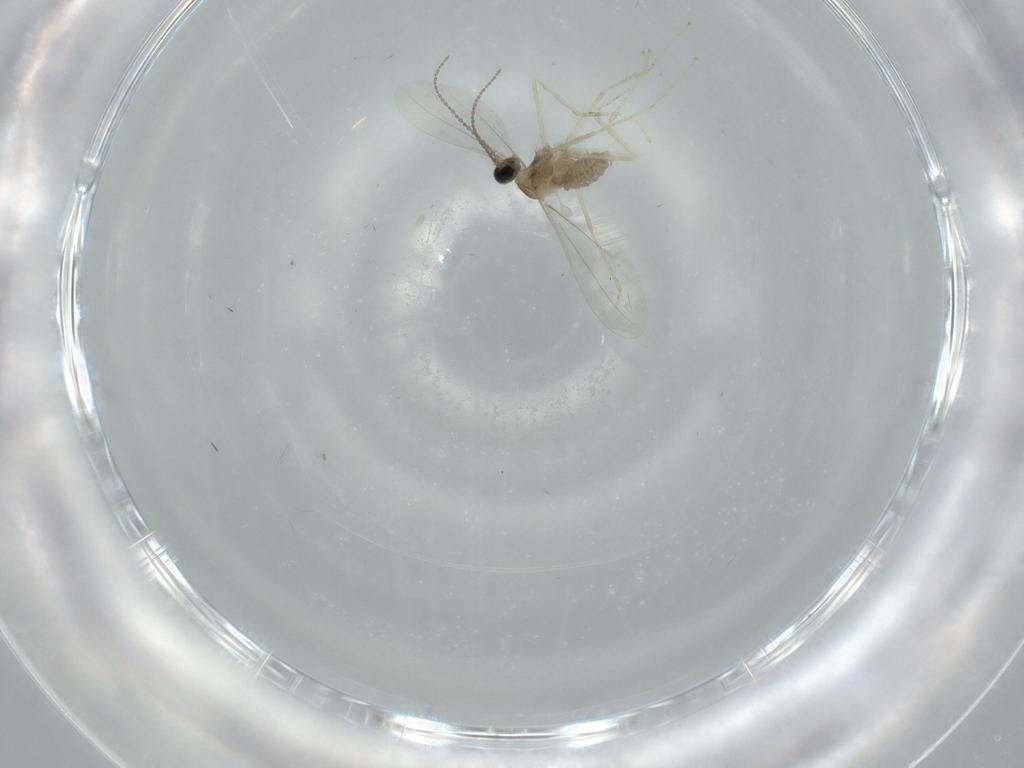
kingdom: Animalia
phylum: Arthropoda
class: Insecta
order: Diptera
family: Cecidomyiidae
